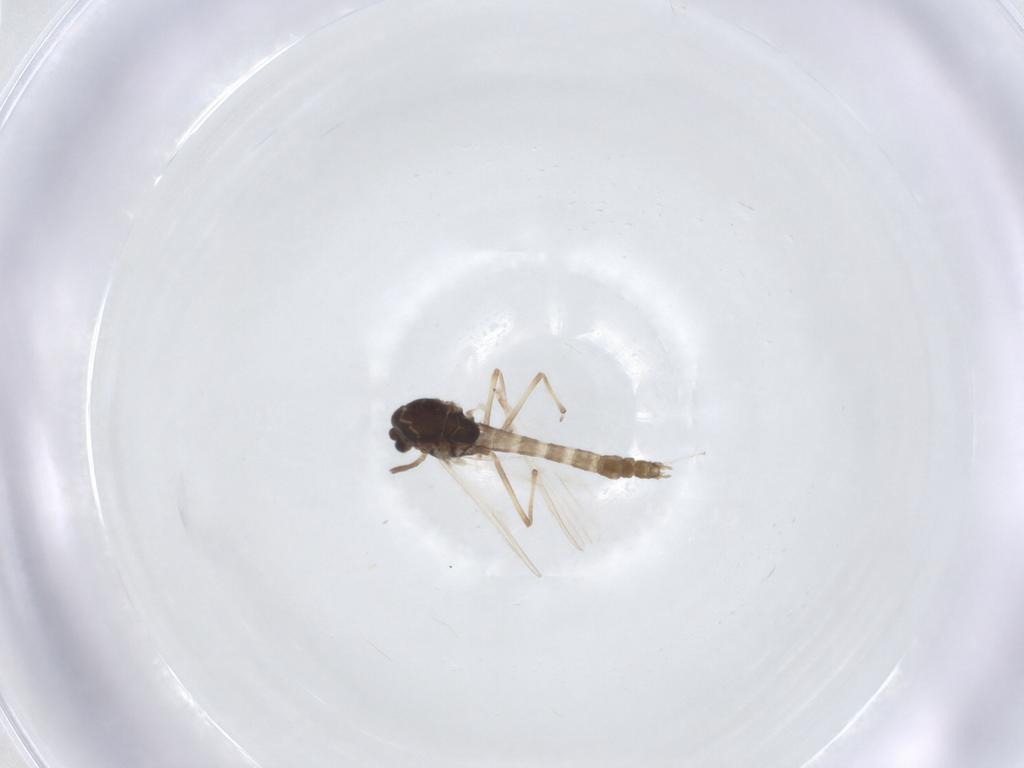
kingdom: Animalia
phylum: Arthropoda
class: Insecta
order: Diptera
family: Chironomidae
